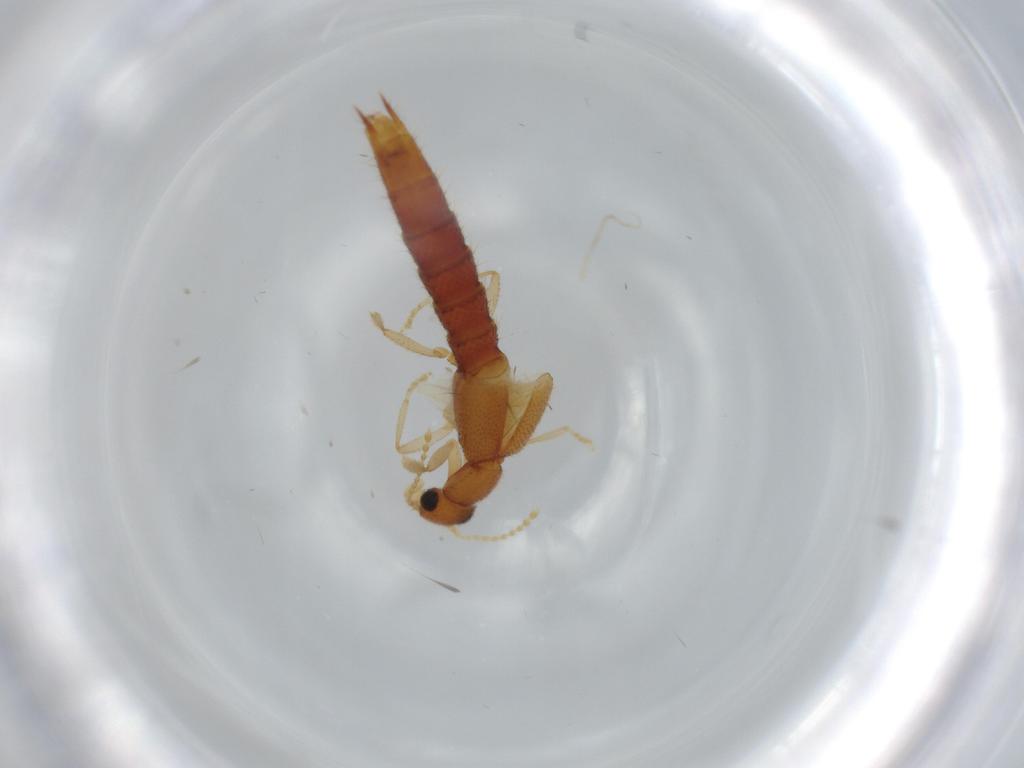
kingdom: Animalia
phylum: Arthropoda
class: Insecta
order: Coleoptera
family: Staphylinidae
